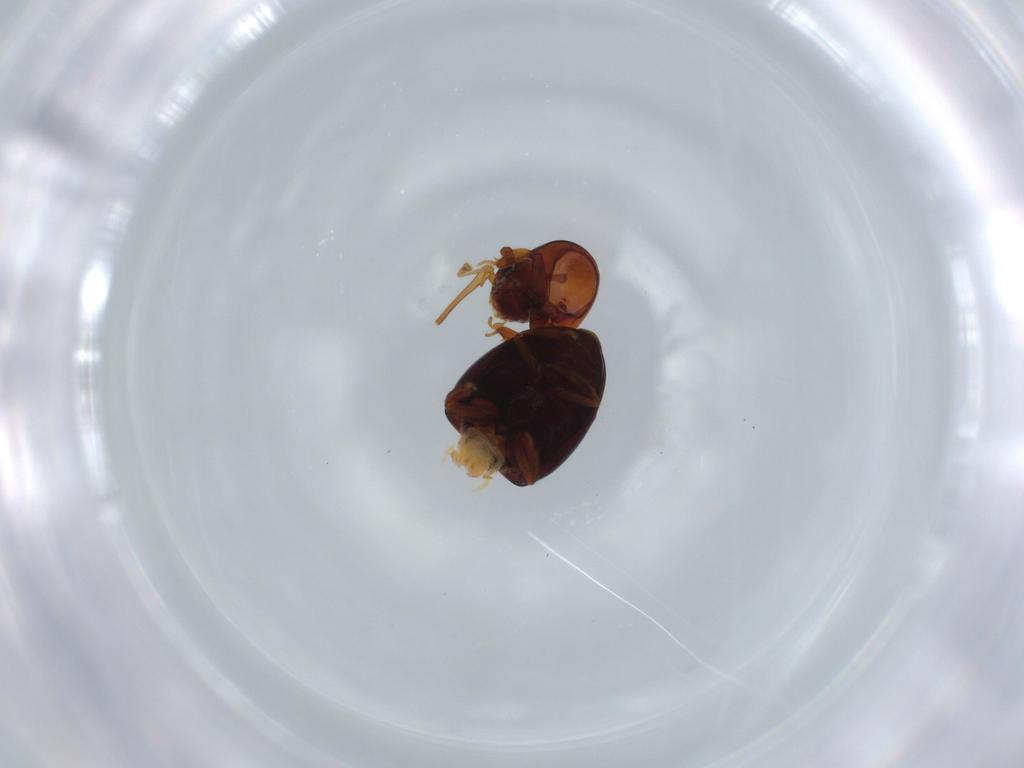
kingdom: Animalia
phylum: Arthropoda
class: Insecta
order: Coleoptera
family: Hydrophilidae
